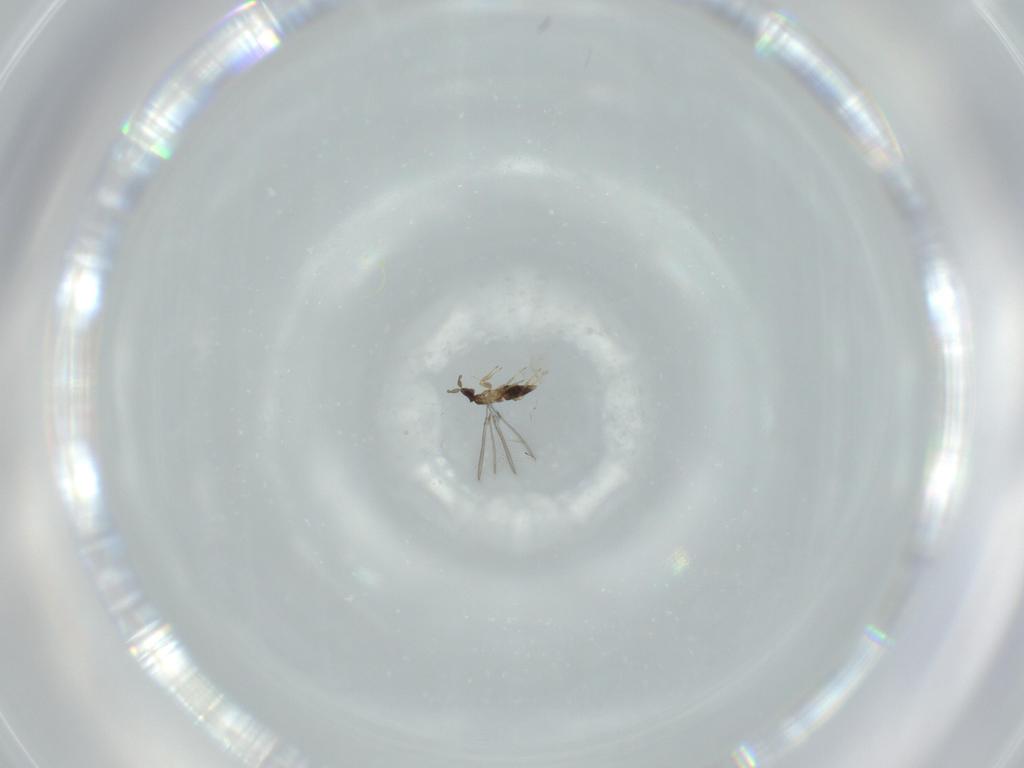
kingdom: Animalia
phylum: Arthropoda
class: Insecta
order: Hymenoptera
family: Mymaridae
